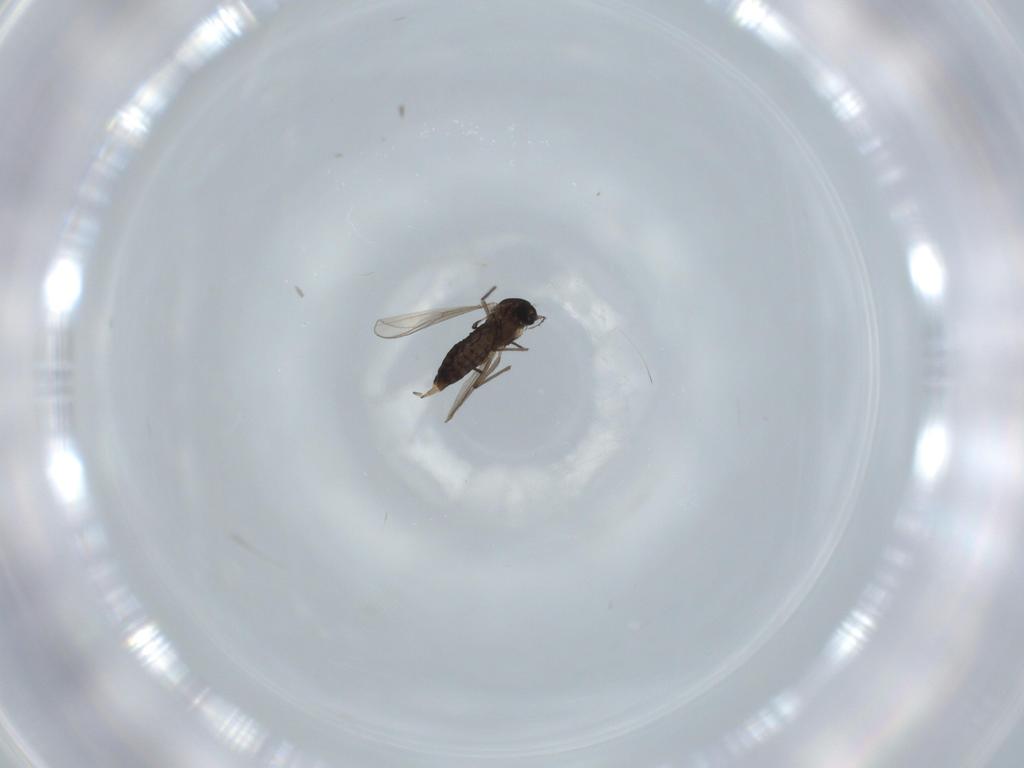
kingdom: Animalia
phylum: Arthropoda
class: Insecta
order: Diptera
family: Chironomidae
